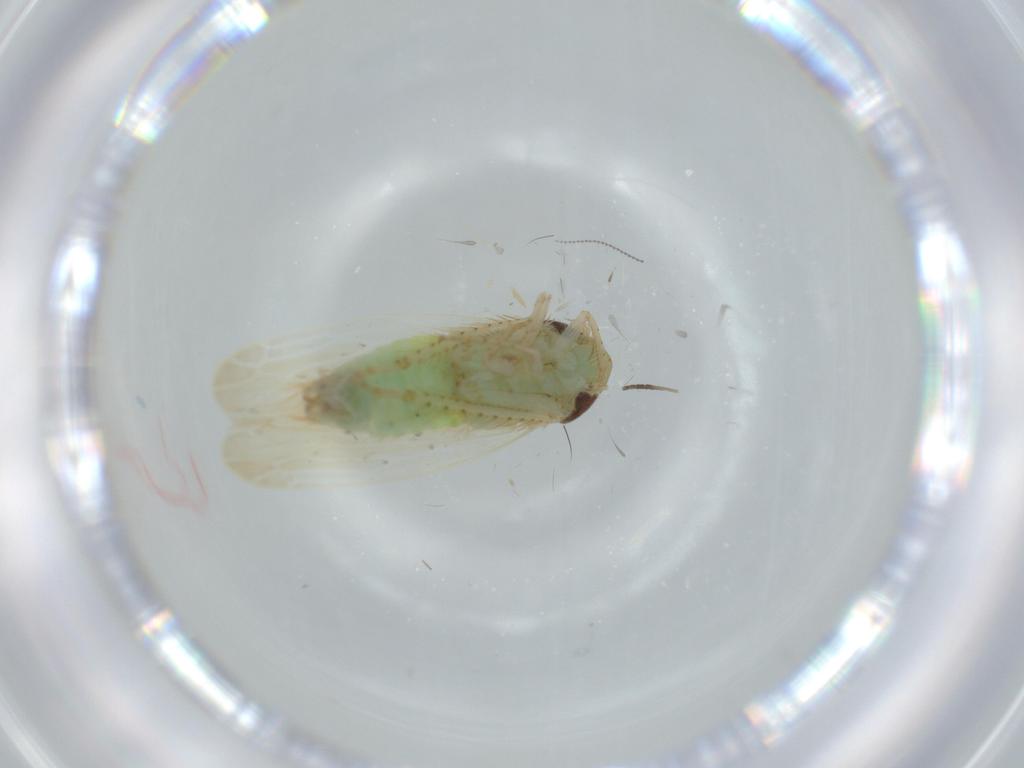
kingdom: Animalia
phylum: Arthropoda
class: Insecta
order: Hemiptera
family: Cicadellidae
